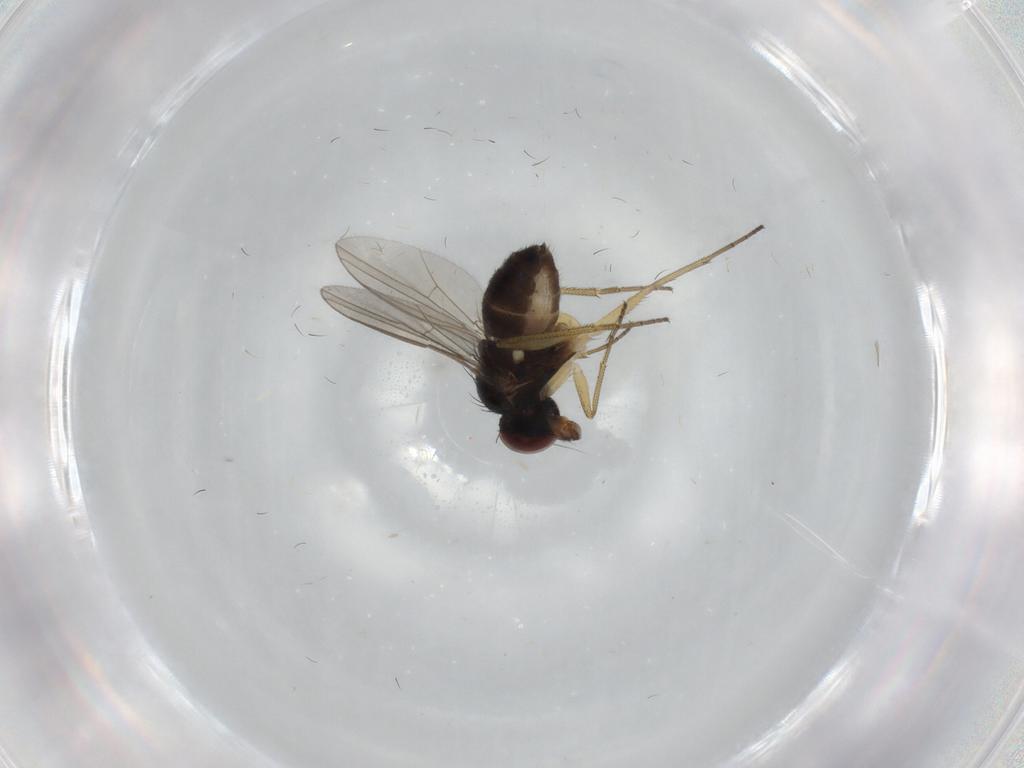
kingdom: Animalia
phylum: Arthropoda
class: Insecta
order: Diptera
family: Dolichopodidae
